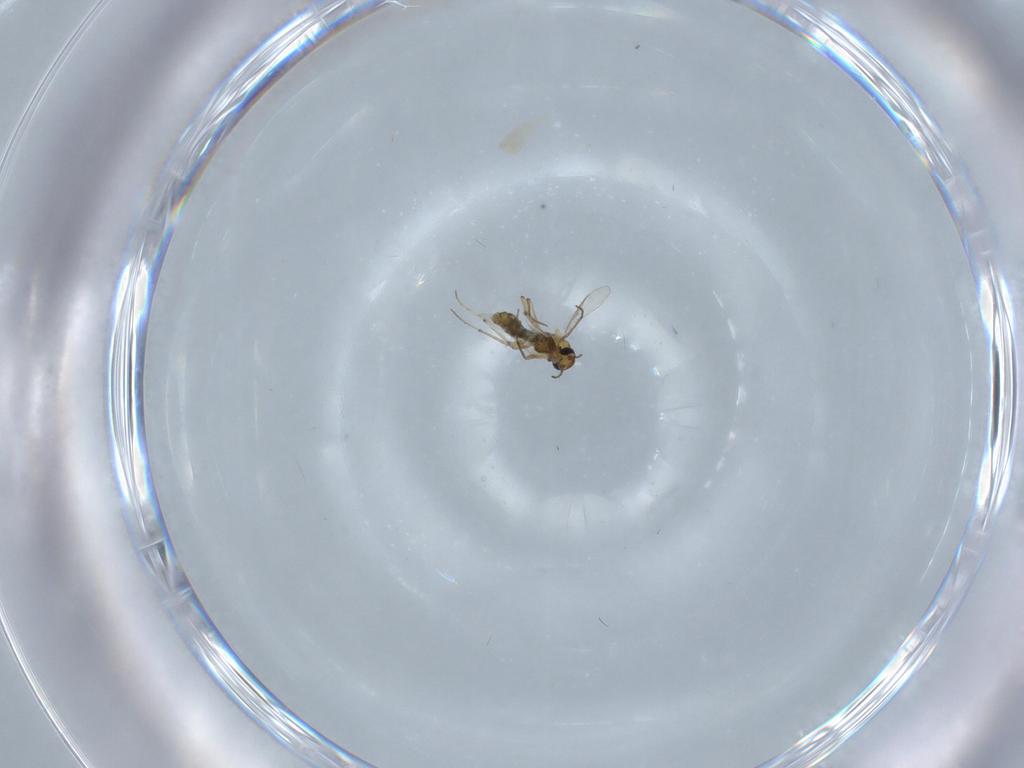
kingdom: Animalia
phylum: Arthropoda
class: Insecta
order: Diptera
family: Chironomidae
